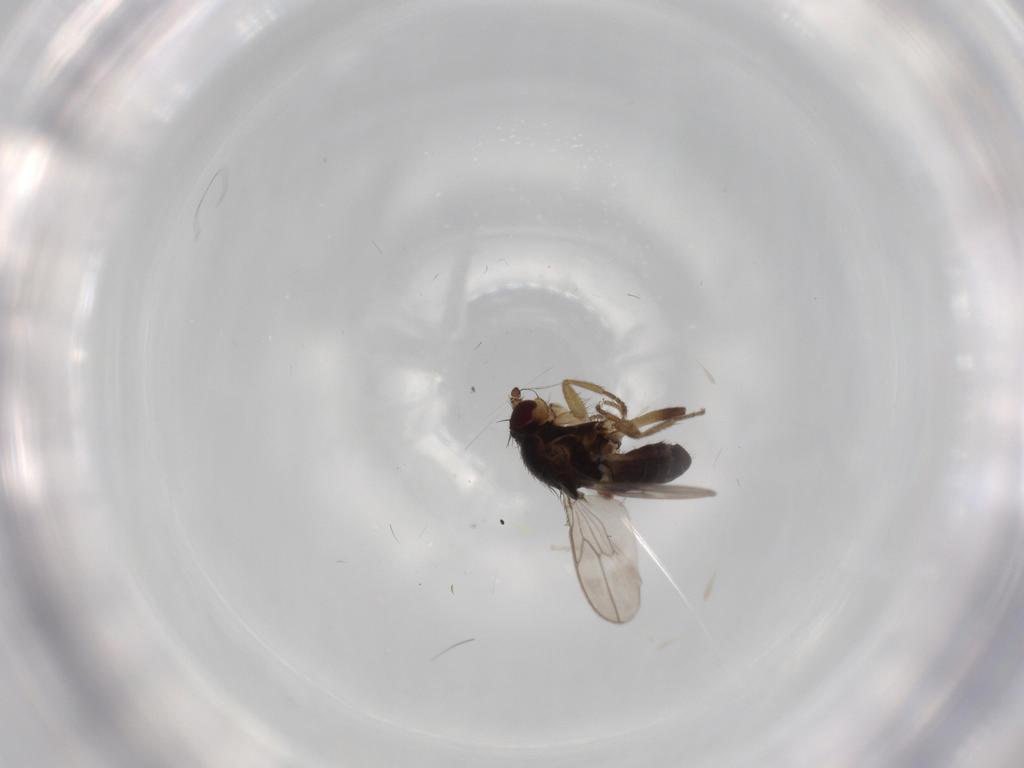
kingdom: Animalia
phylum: Arthropoda
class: Insecta
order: Diptera
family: Sphaeroceridae
